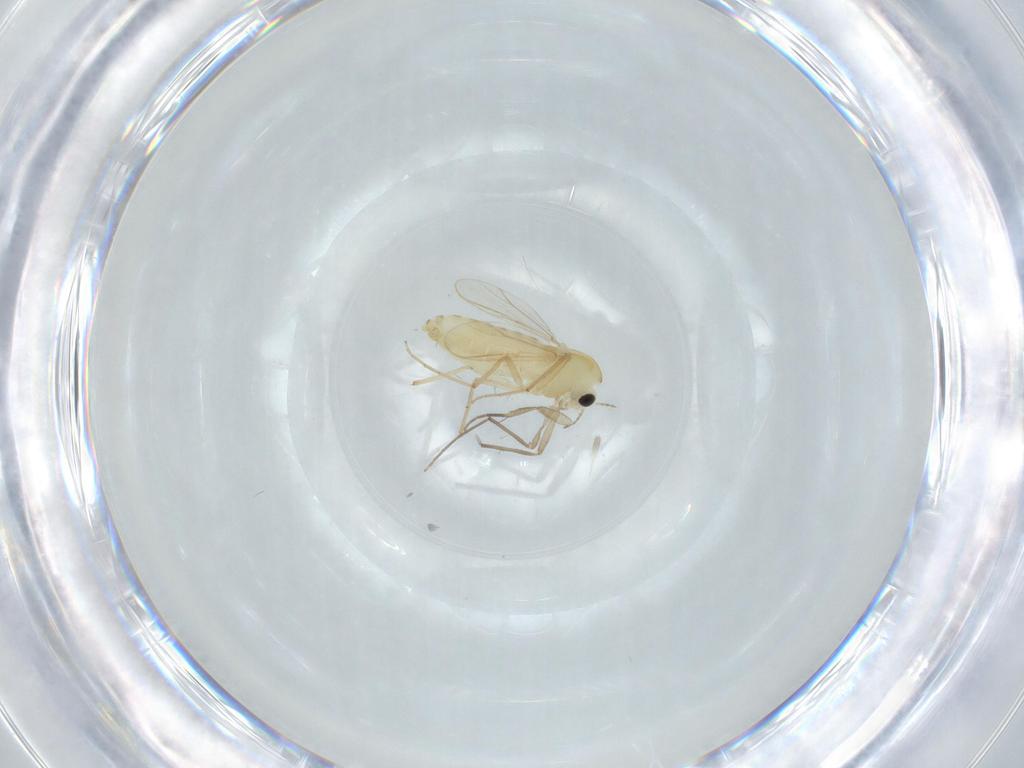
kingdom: Animalia
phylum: Arthropoda
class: Insecta
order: Diptera
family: Chironomidae
